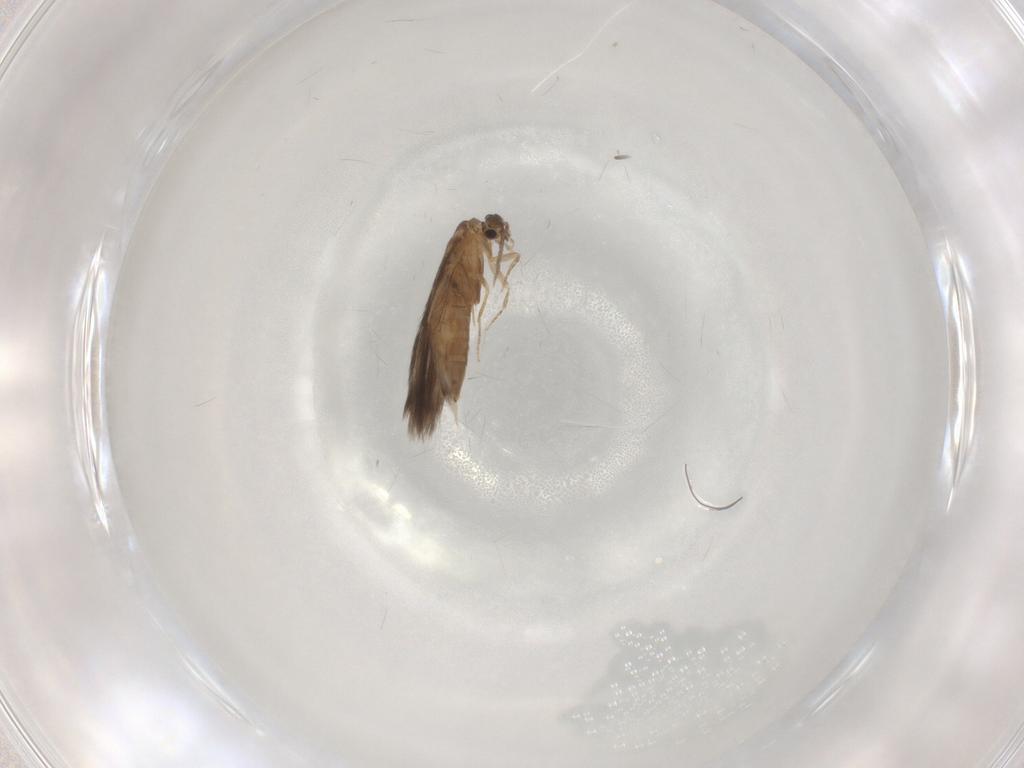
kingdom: Animalia
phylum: Arthropoda
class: Insecta
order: Trichoptera
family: Hydroptilidae
